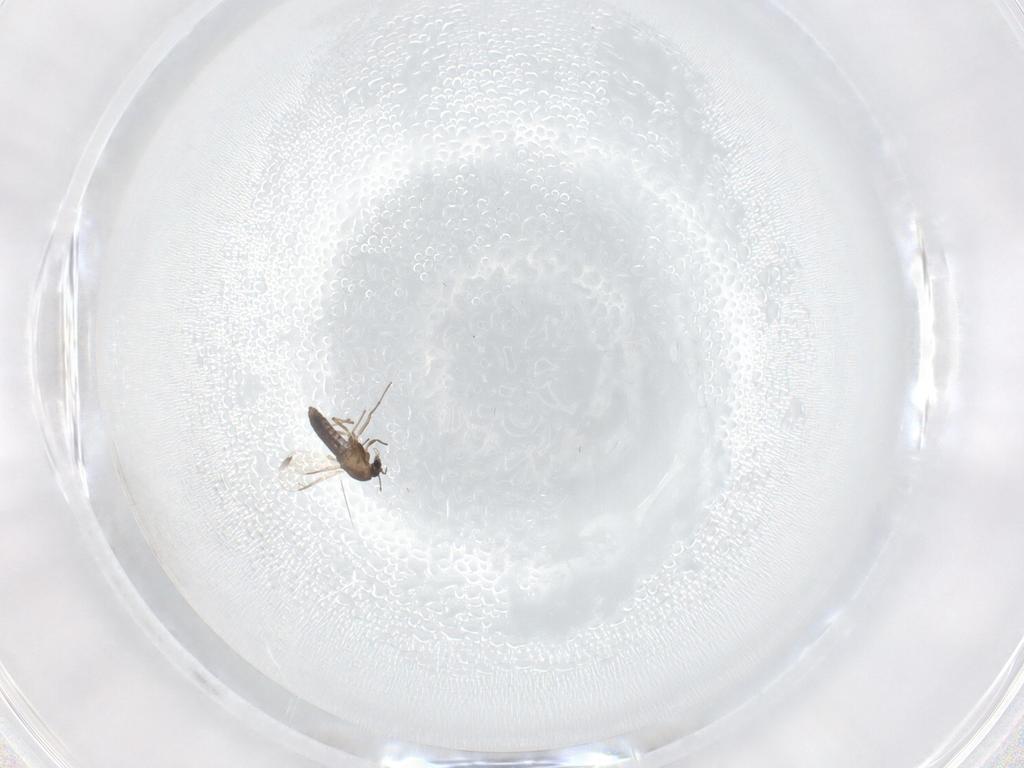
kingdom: Animalia
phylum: Arthropoda
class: Insecta
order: Diptera
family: Chironomidae
